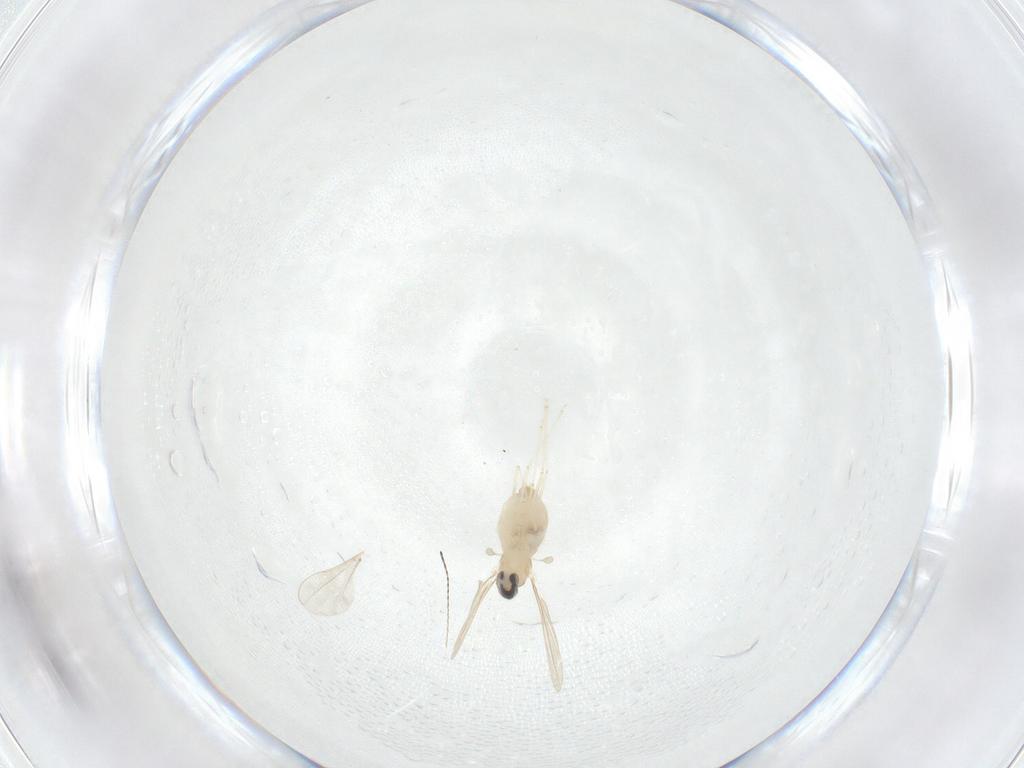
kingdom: Animalia
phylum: Arthropoda
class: Insecta
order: Diptera
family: Cecidomyiidae
